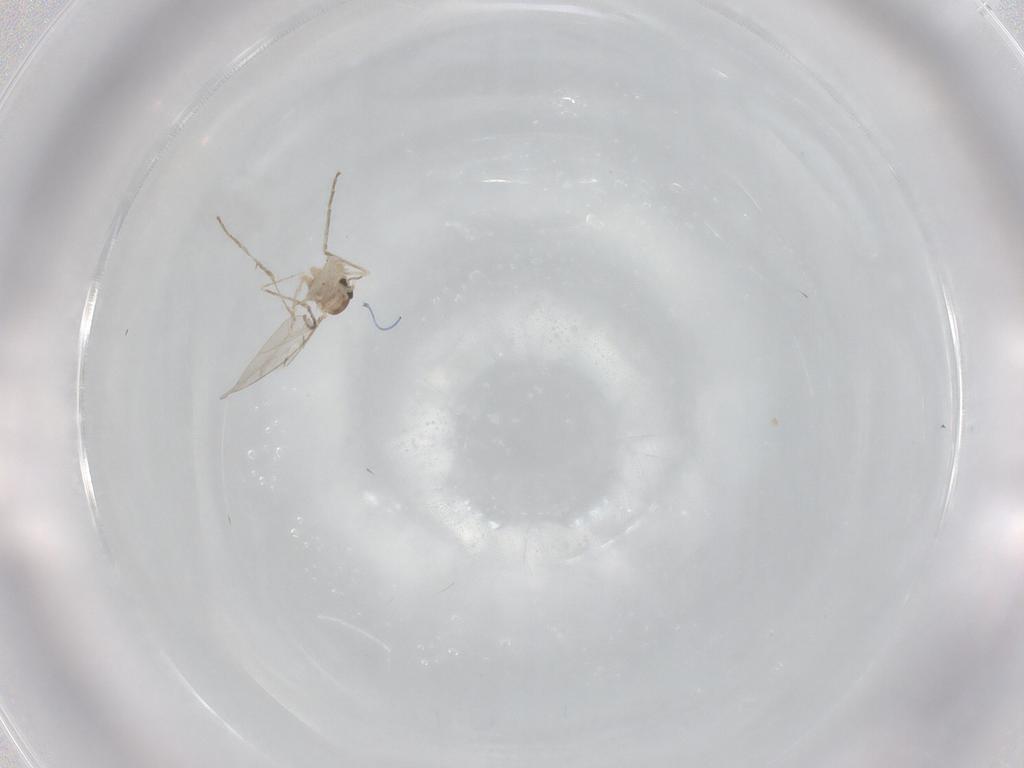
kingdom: Animalia
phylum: Arthropoda
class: Insecta
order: Diptera
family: Cecidomyiidae
